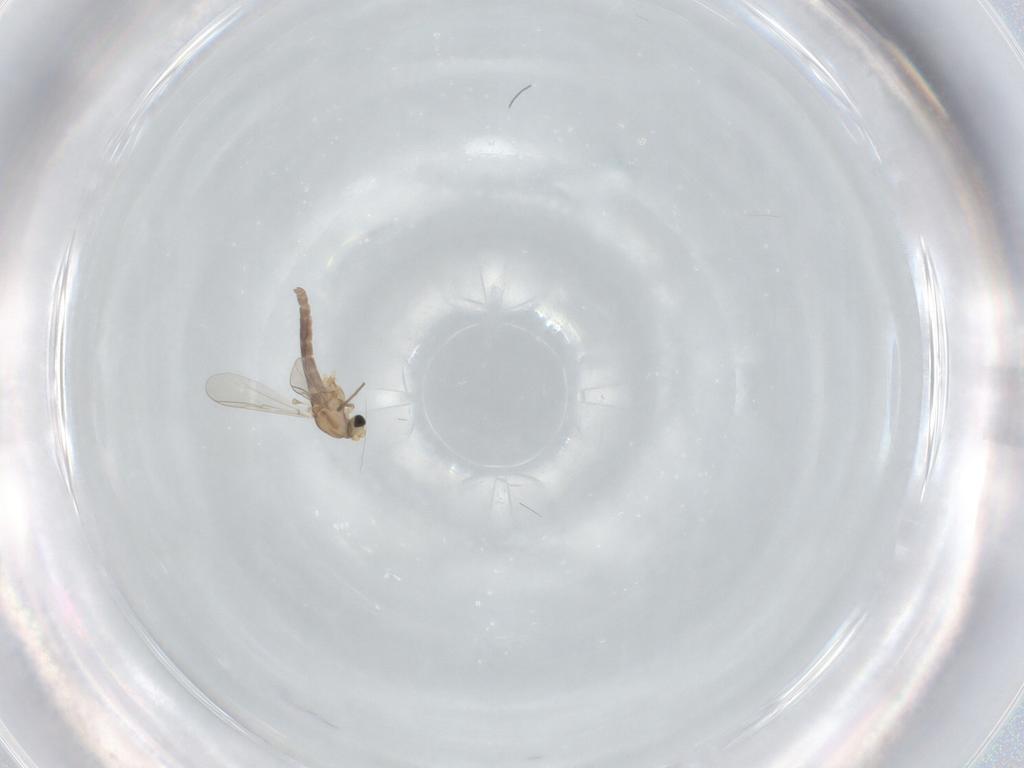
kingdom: Animalia
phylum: Arthropoda
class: Insecta
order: Diptera
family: Chironomidae
